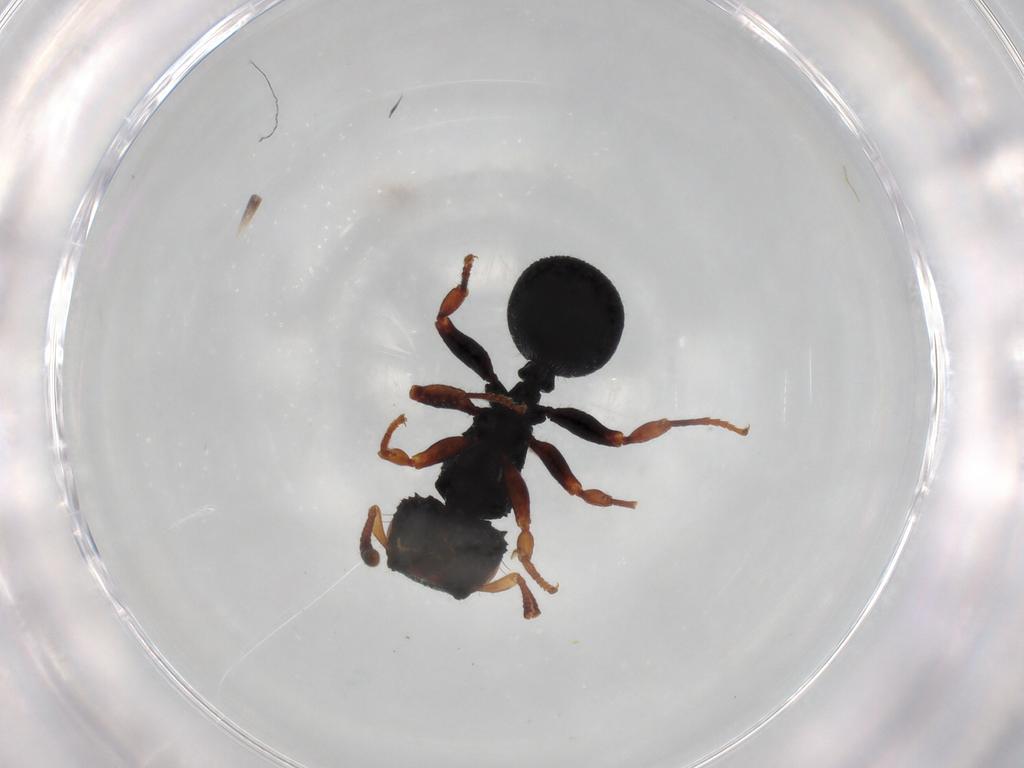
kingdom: Animalia
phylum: Arthropoda
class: Insecta
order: Hymenoptera
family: Formicidae
